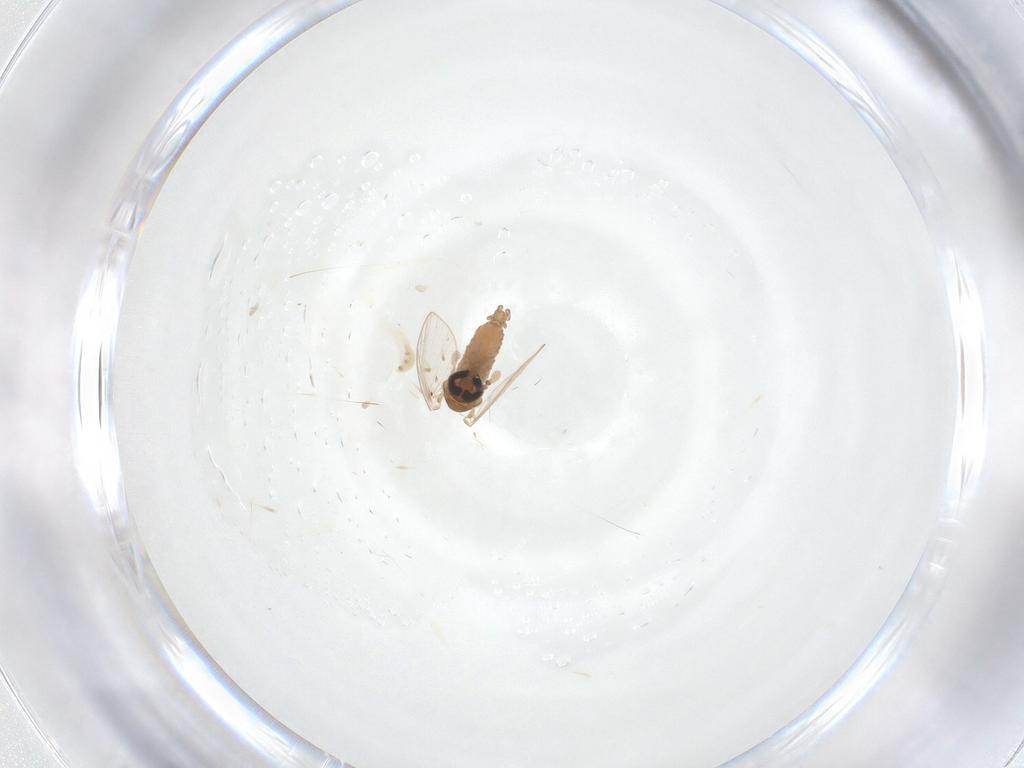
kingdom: Animalia
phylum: Arthropoda
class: Insecta
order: Diptera
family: Psychodidae
